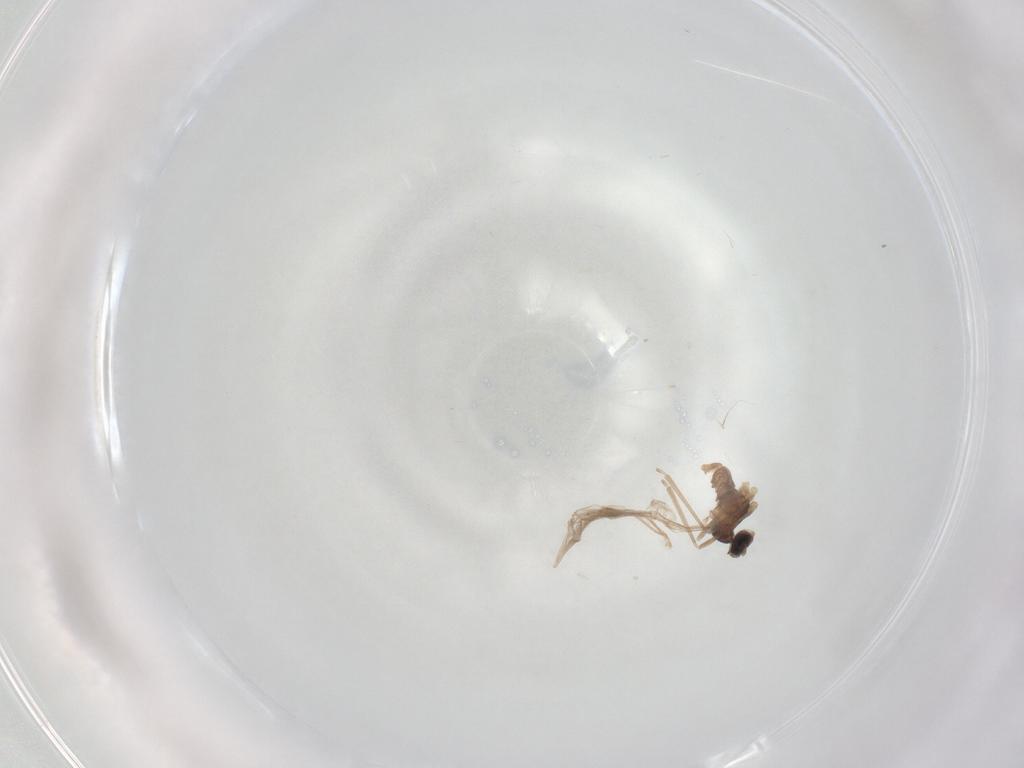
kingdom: Animalia
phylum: Arthropoda
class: Insecta
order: Diptera
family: Cecidomyiidae
